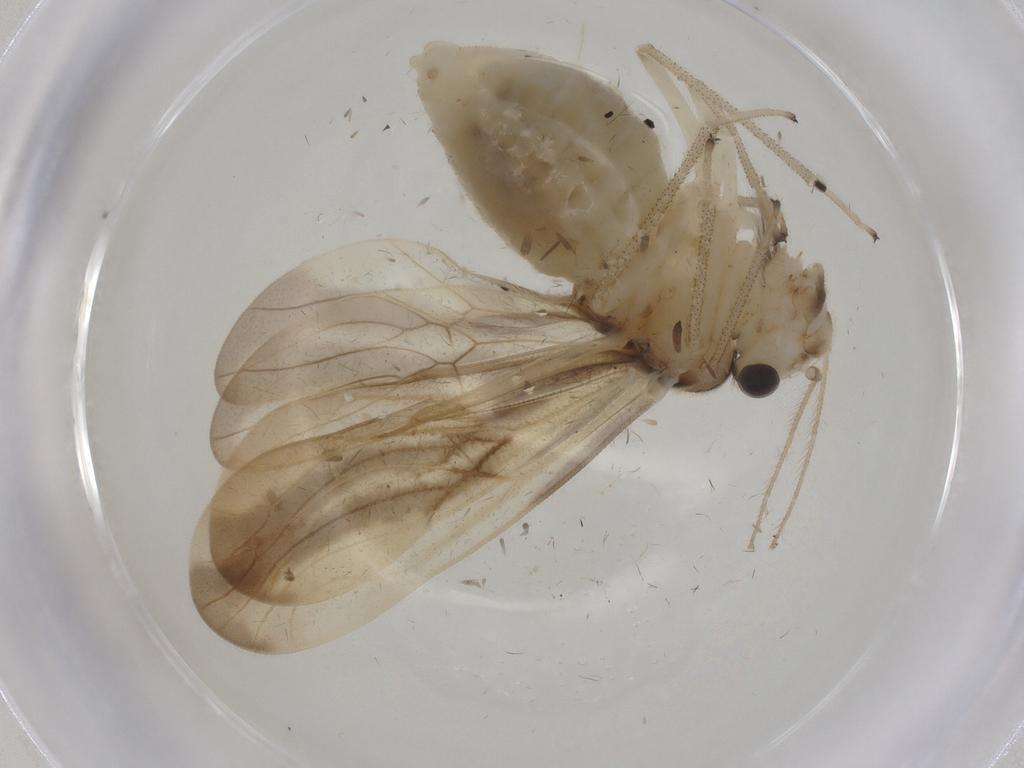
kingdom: Animalia
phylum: Arthropoda
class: Insecta
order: Psocodea
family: Amphipsocidae
